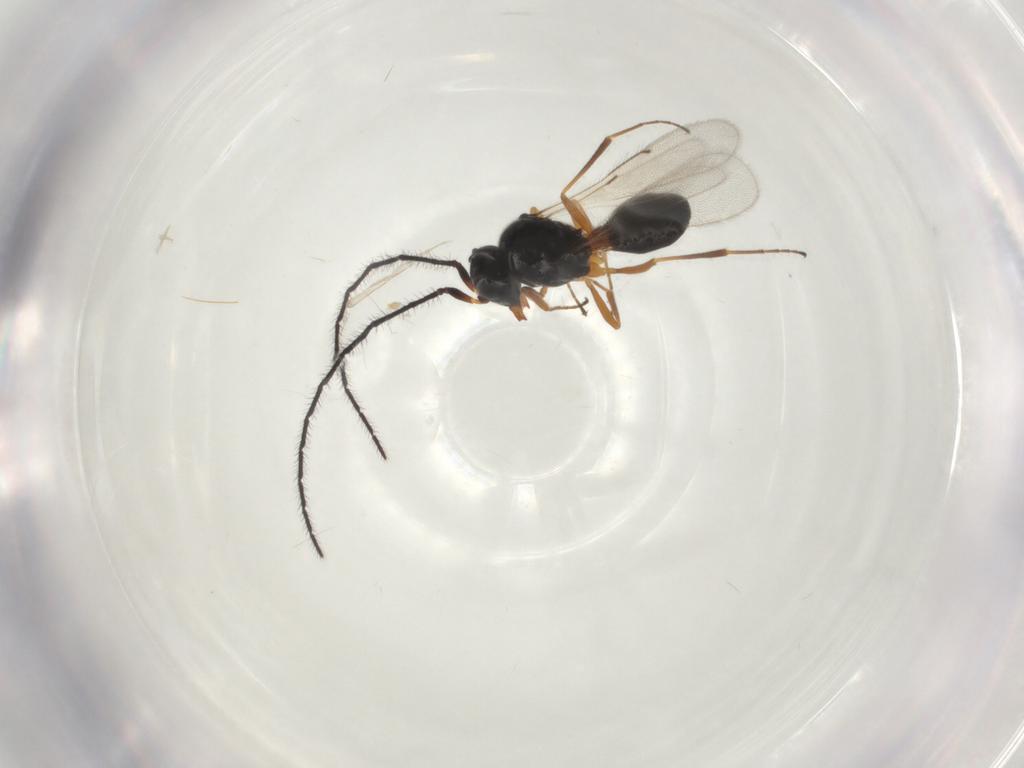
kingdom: Animalia
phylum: Arthropoda
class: Insecta
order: Hymenoptera
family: Scelionidae
